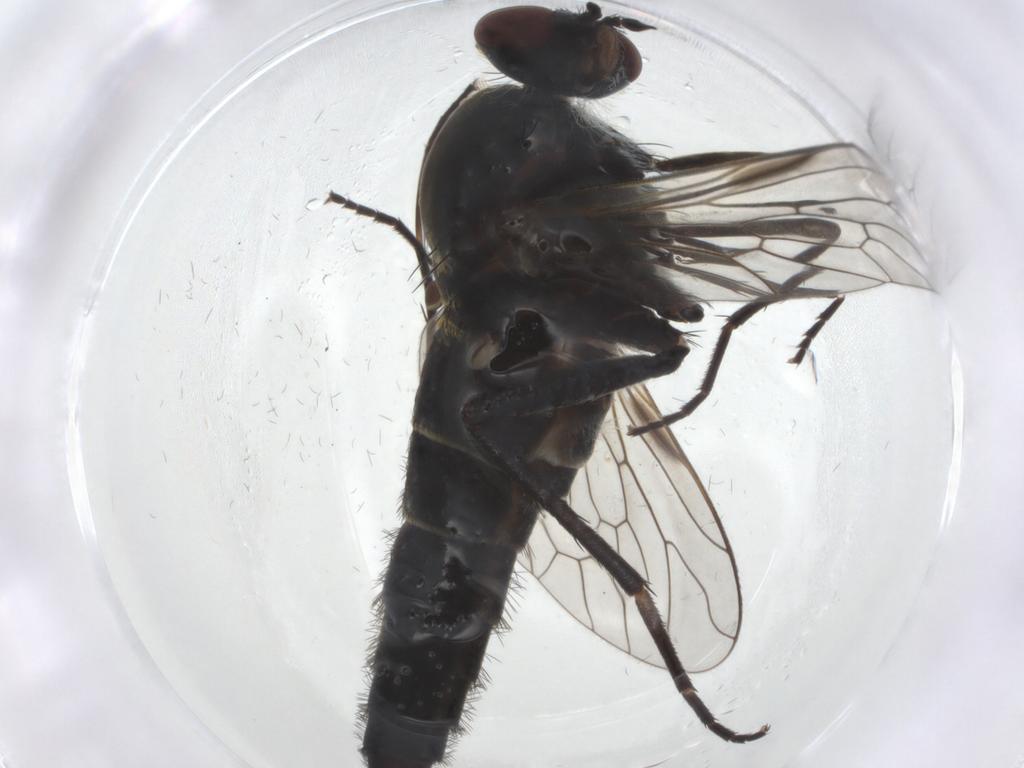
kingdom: Animalia
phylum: Arthropoda
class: Insecta
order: Diptera
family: Therevidae
